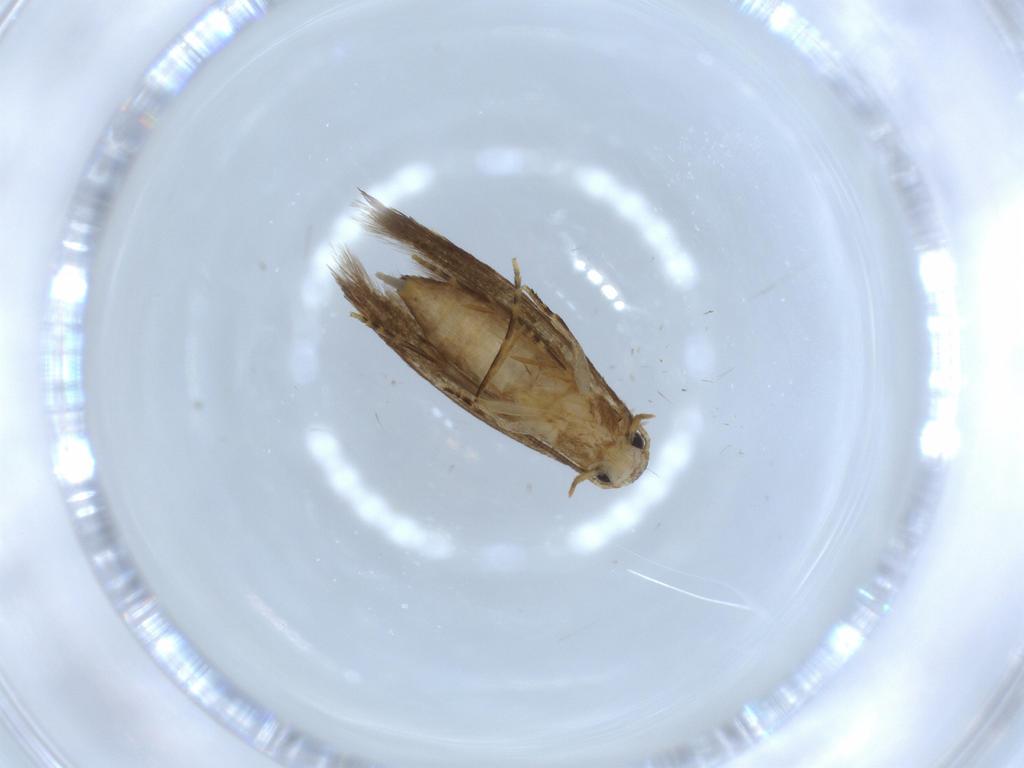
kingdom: Animalia
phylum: Arthropoda
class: Insecta
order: Lepidoptera
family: Tineidae
